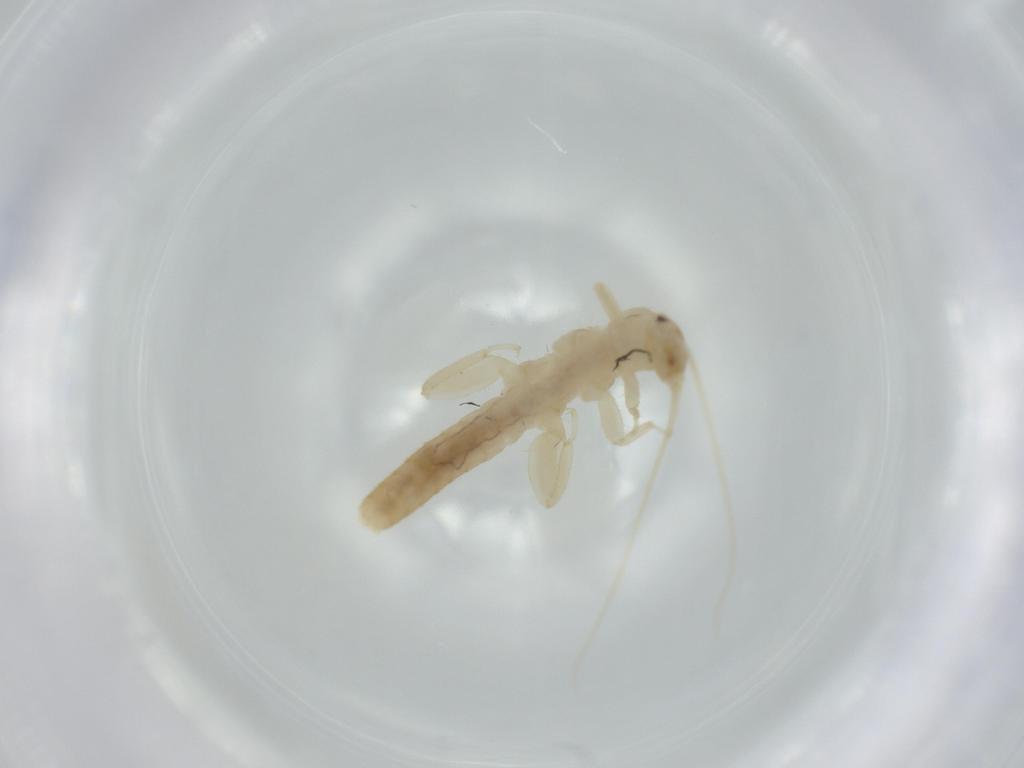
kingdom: Animalia
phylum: Arthropoda
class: Insecta
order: Plecoptera
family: Leuctridae
